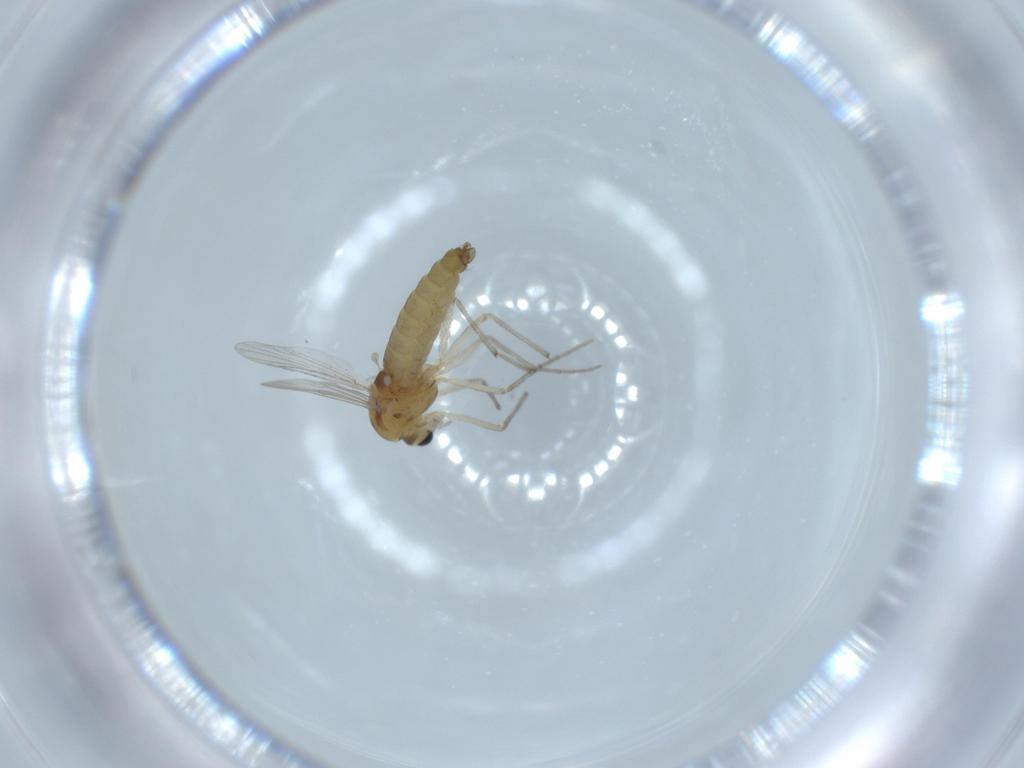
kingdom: Animalia
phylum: Arthropoda
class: Insecta
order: Diptera
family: Chironomidae
